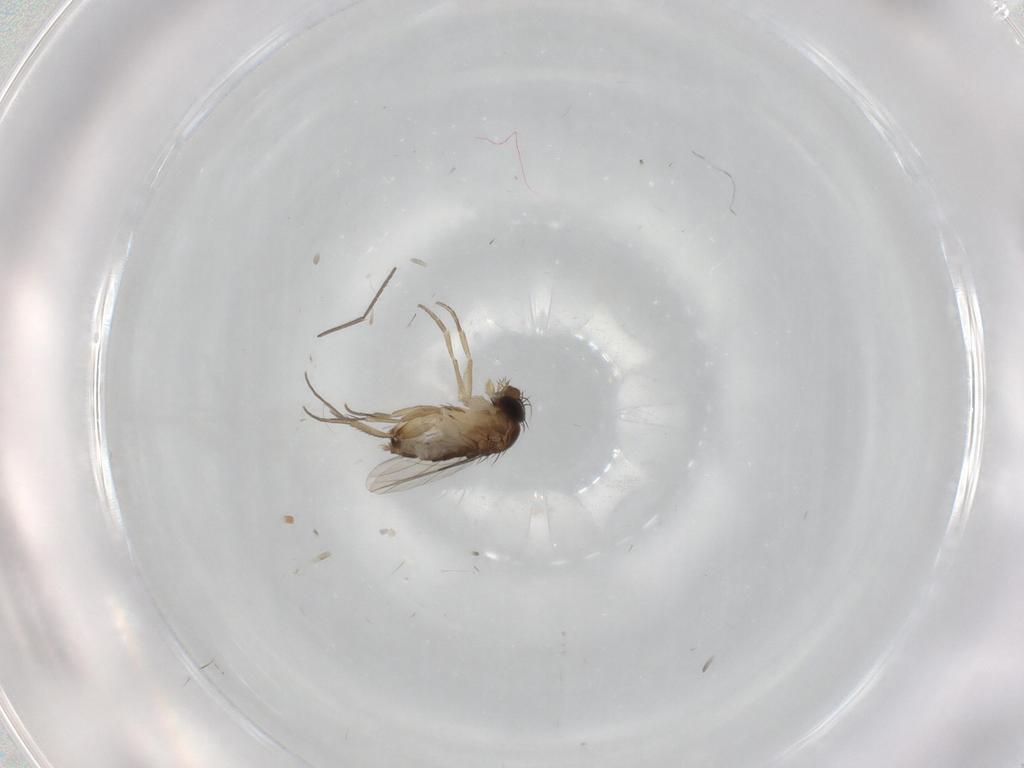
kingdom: Animalia
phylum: Arthropoda
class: Insecta
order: Diptera
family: Phoridae
